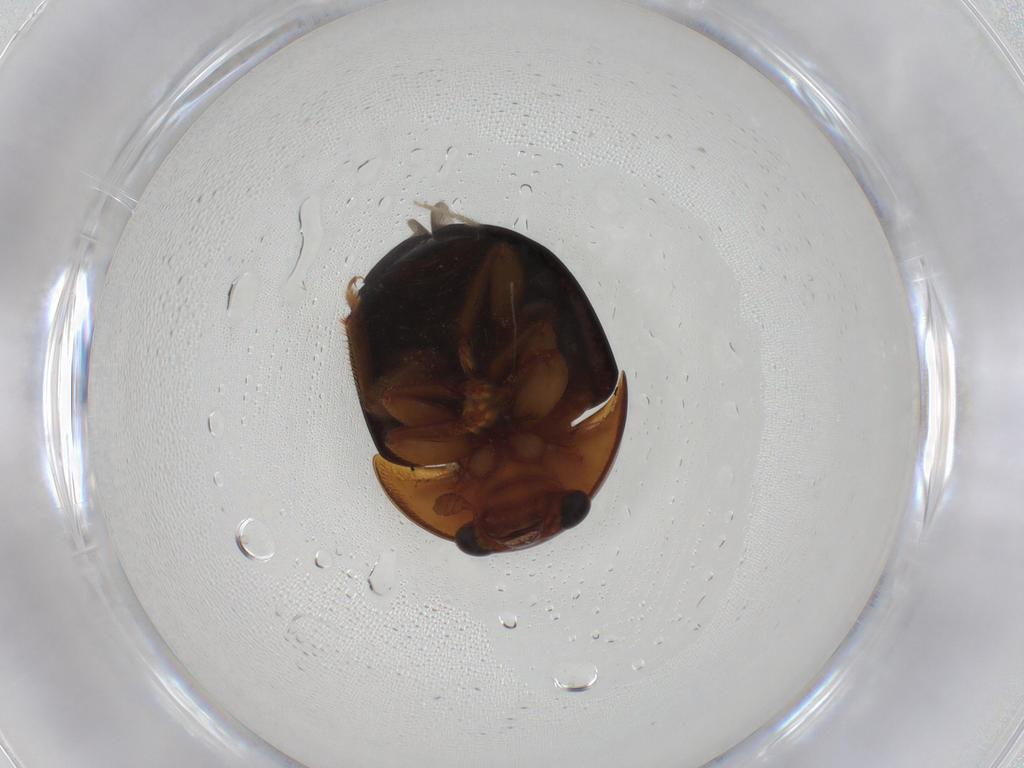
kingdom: Animalia
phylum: Arthropoda
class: Insecta
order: Coleoptera
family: Nitidulidae
